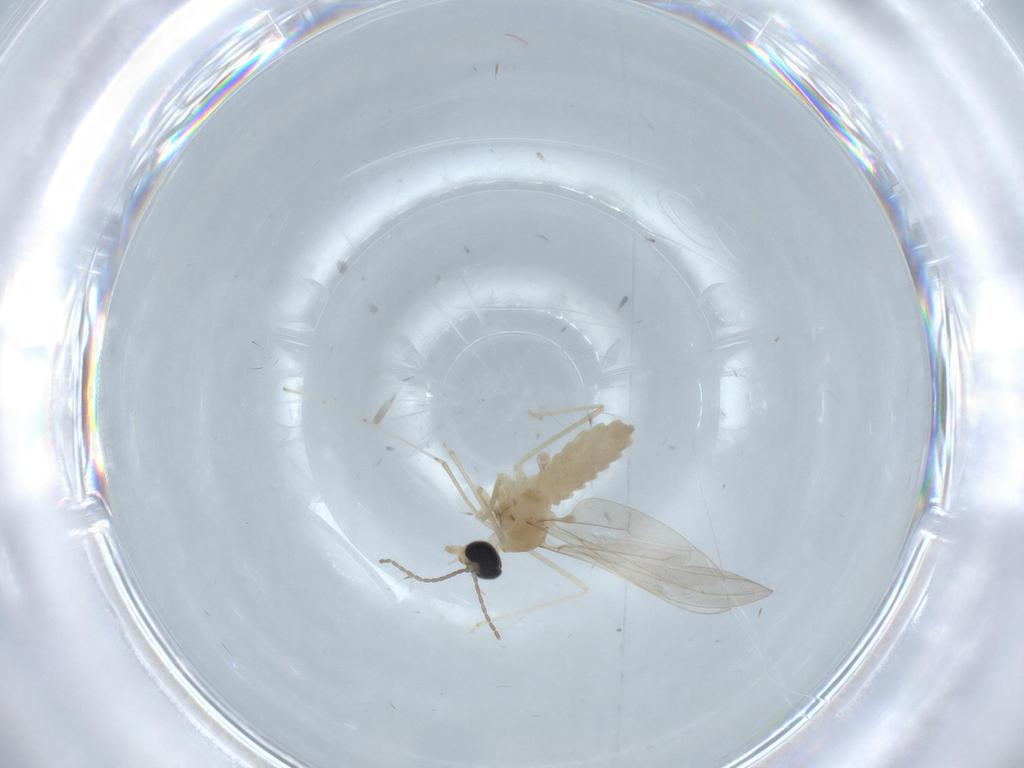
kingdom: Animalia
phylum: Arthropoda
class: Insecta
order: Diptera
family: Cecidomyiidae
